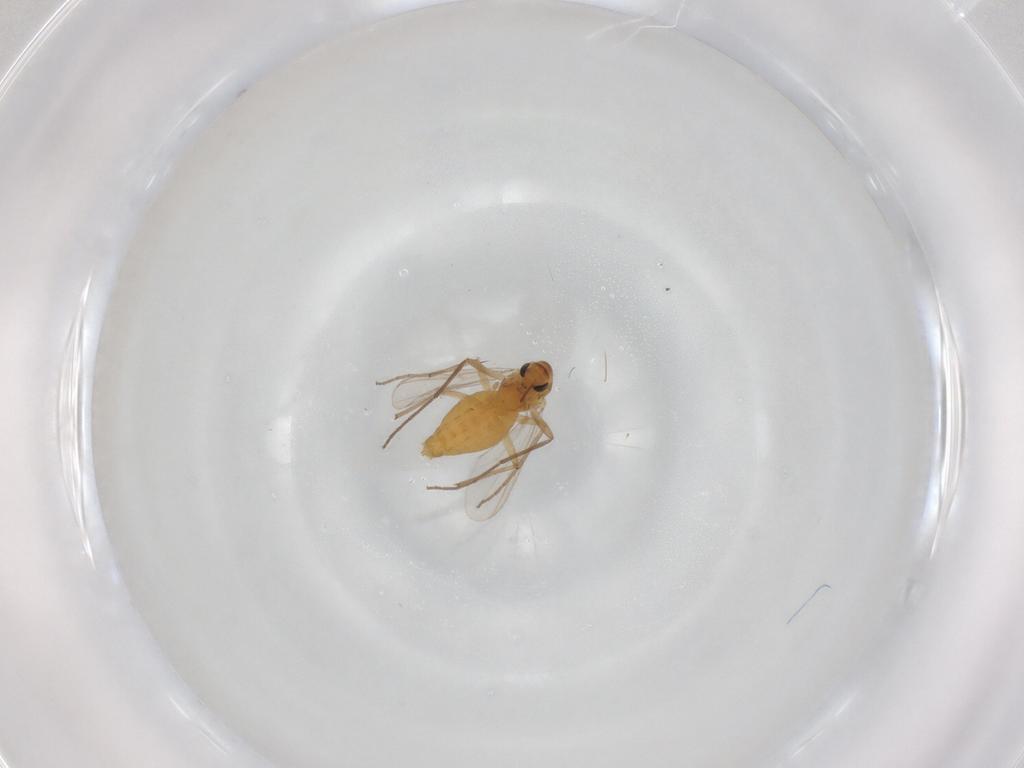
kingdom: Animalia
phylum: Arthropoda
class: Insecta
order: Diptera
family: Chironomidae
